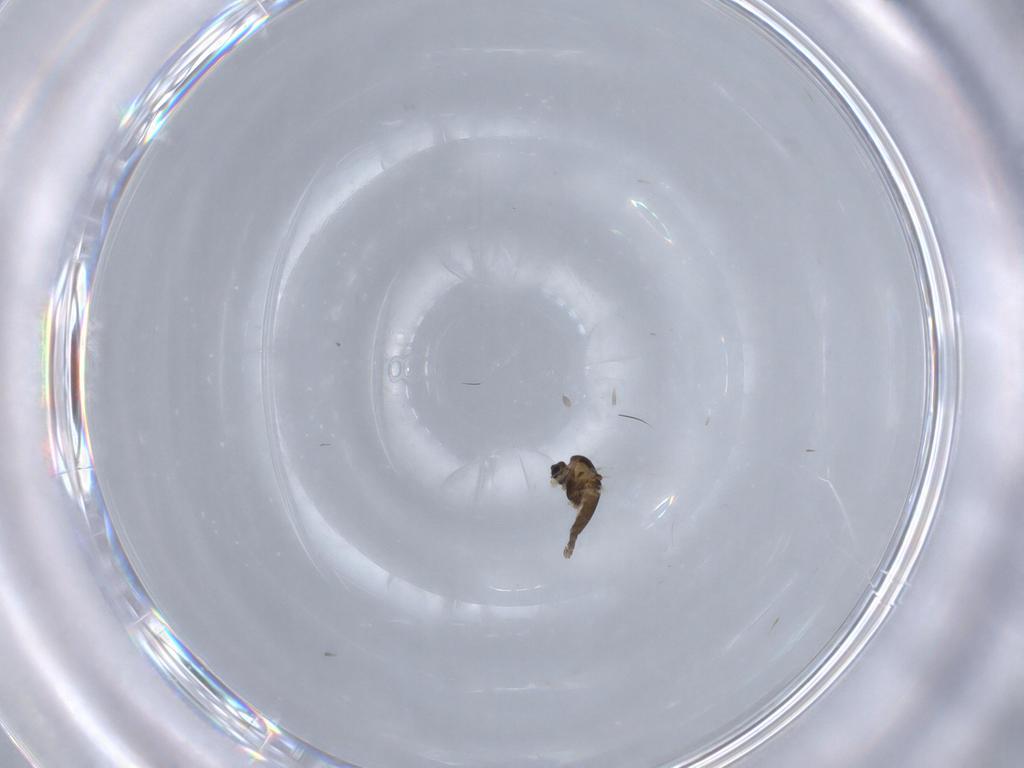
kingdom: Animalia
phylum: Arthropoda
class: Insecta
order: Diptera
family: Chironomidae
